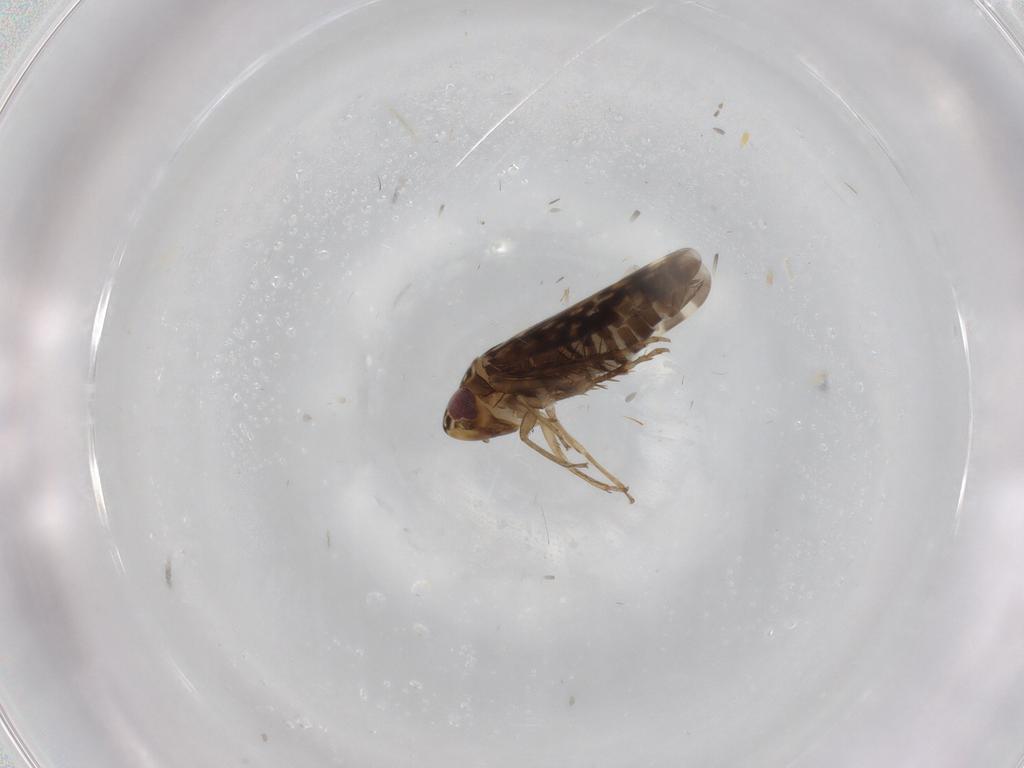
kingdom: Animalia
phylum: Arthropoda
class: Insecta
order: Hemiptera
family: Cicadellidae
